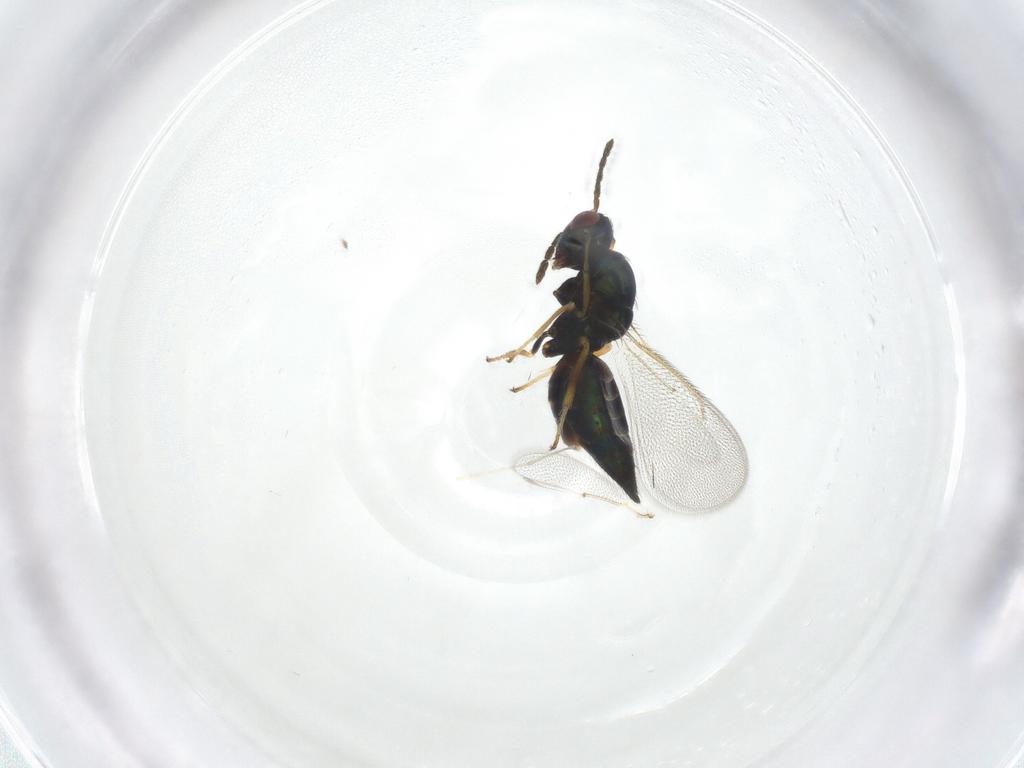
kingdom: Animalia
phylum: Arthropoda
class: Insecta
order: Hymenoptera
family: Eulophidae
